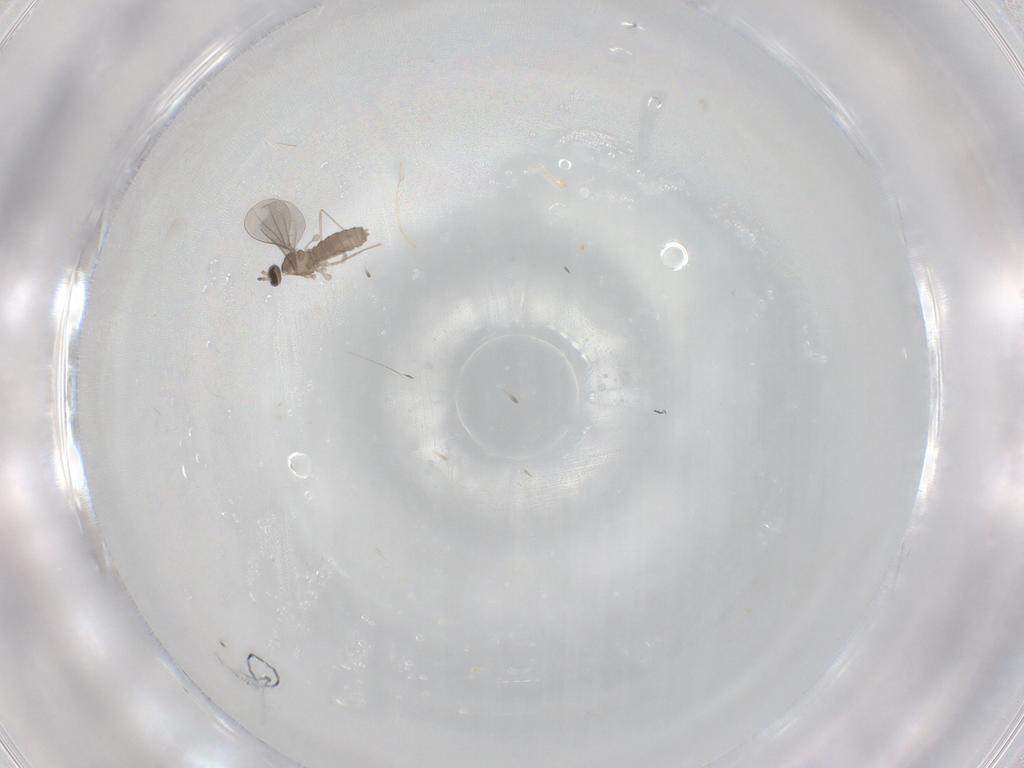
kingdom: Animalia
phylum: Arthropoda
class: Insecta
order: Diptera
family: Cecidomyiidae
